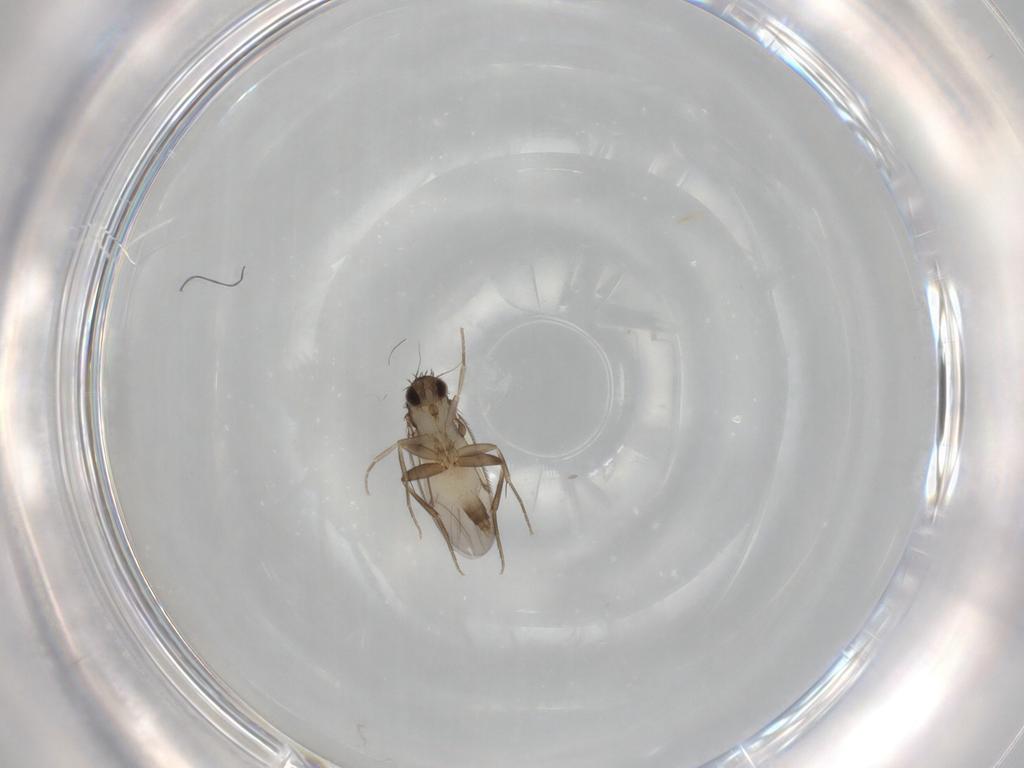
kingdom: Animalia
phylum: Arthropoda
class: Insecta
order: Diptera
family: Phoridae
